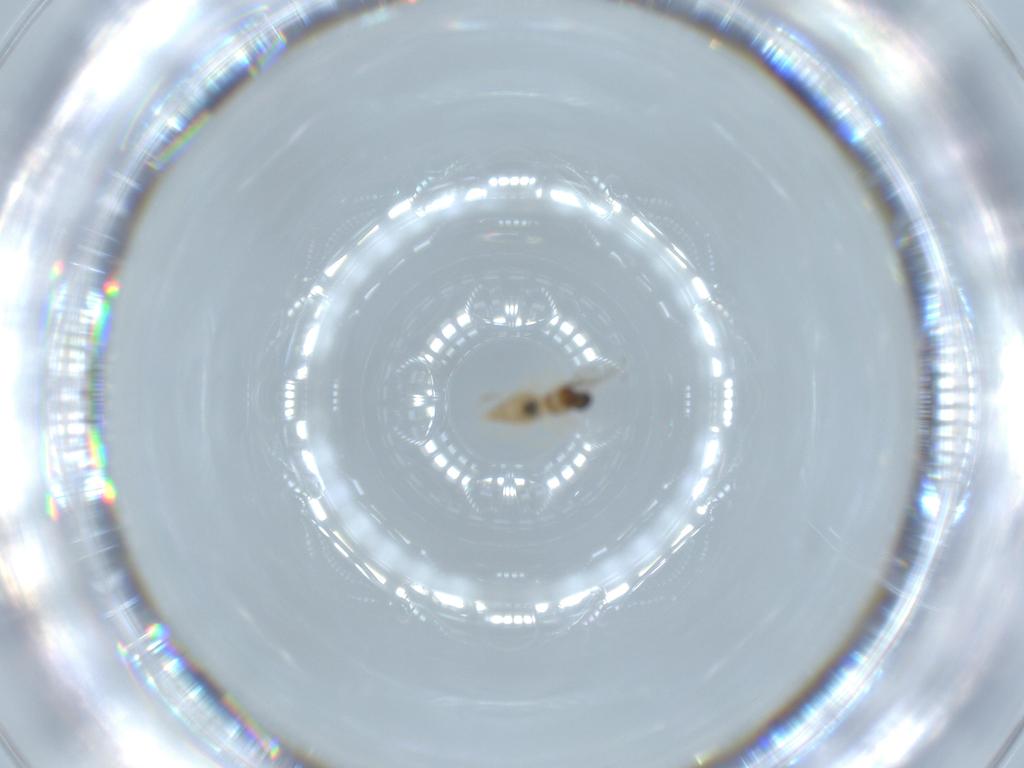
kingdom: Animalia
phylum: Arthropoda
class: Insecta
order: Diptera
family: Cecidomyiidae
